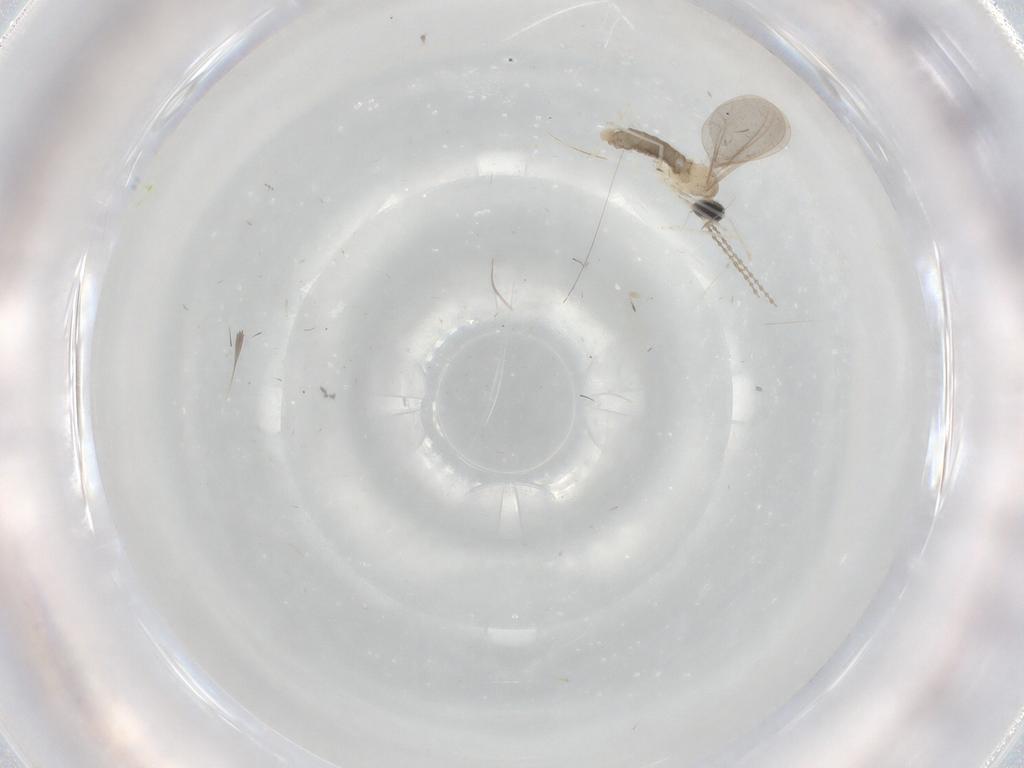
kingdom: Animalia
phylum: Arthropoda
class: Insecta
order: Diptera
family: Cecidomyiidae
